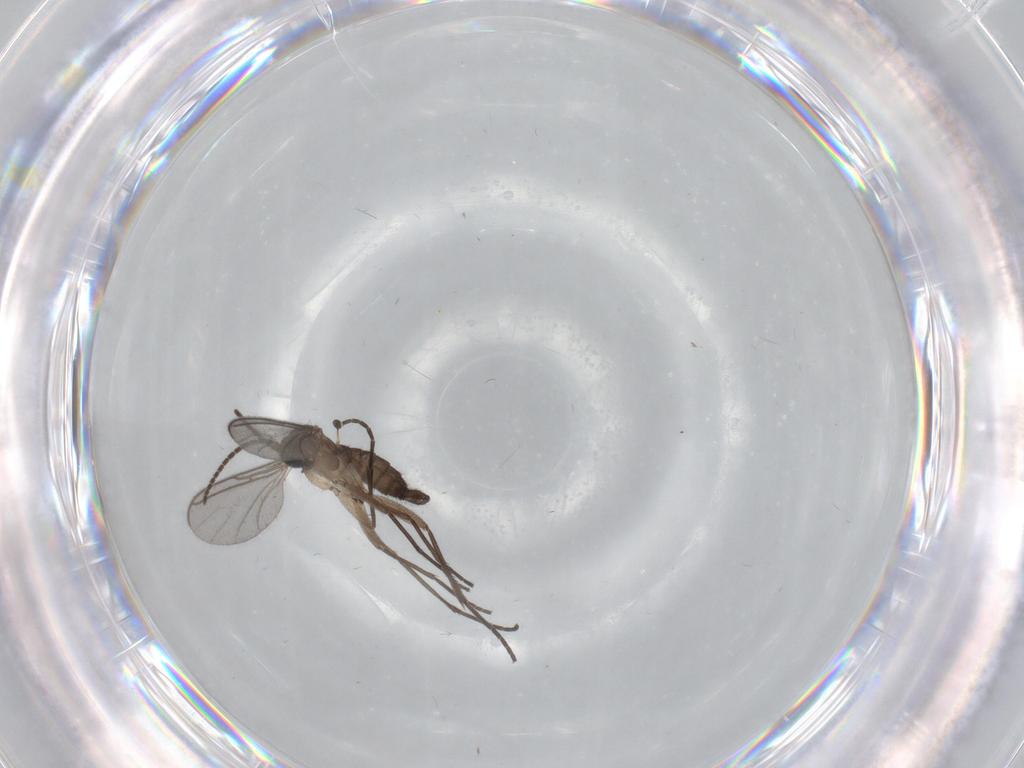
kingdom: Animalia
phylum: Arthropoda
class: Insecta
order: Diptera
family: Sciaridae
